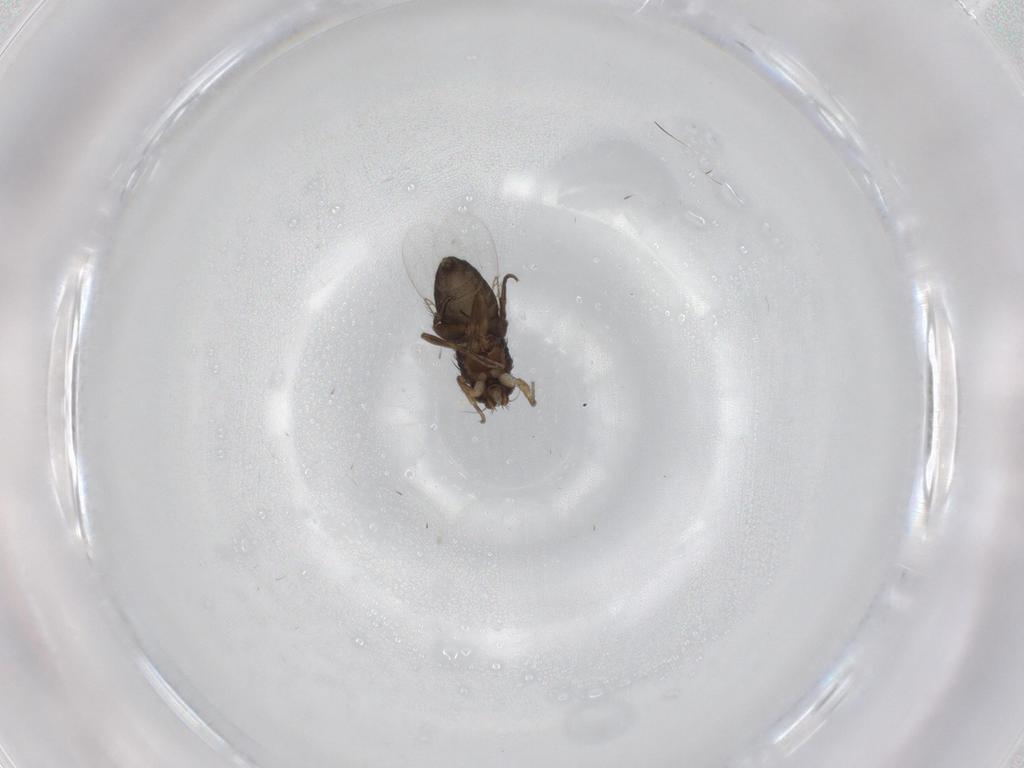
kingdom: Animalia
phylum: Arthropoda
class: Insecta
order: Diptera
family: Phoridae
